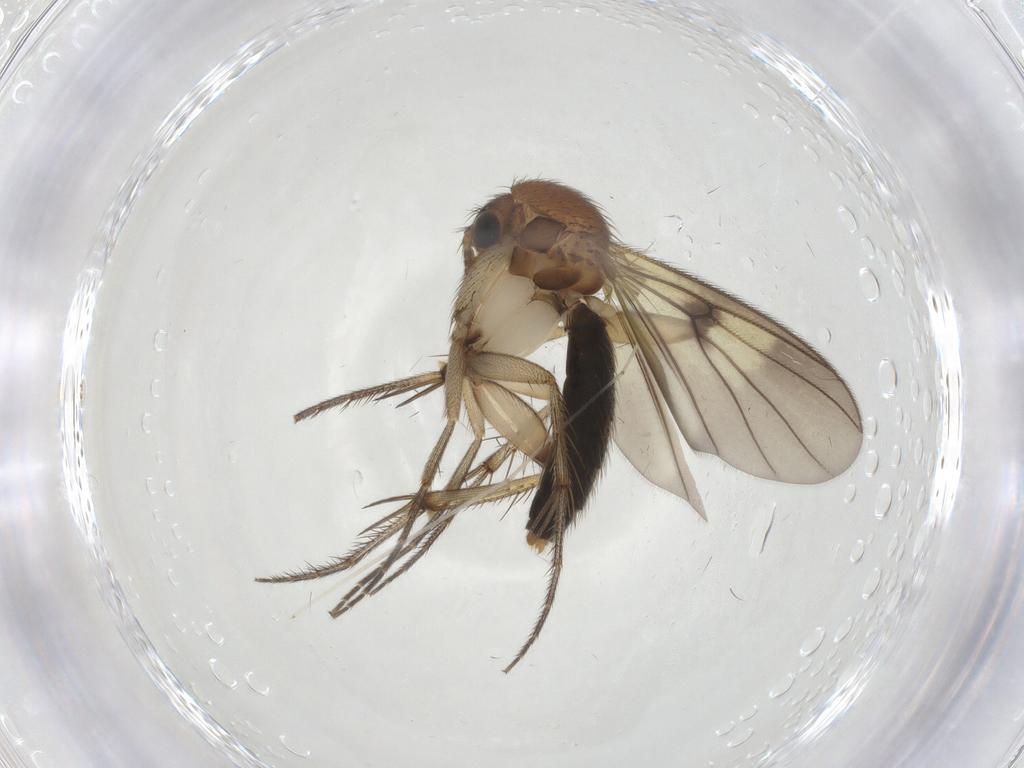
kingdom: Animalia
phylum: Arthropoda
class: Insecta
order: Diptera
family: Mycetophilidae
